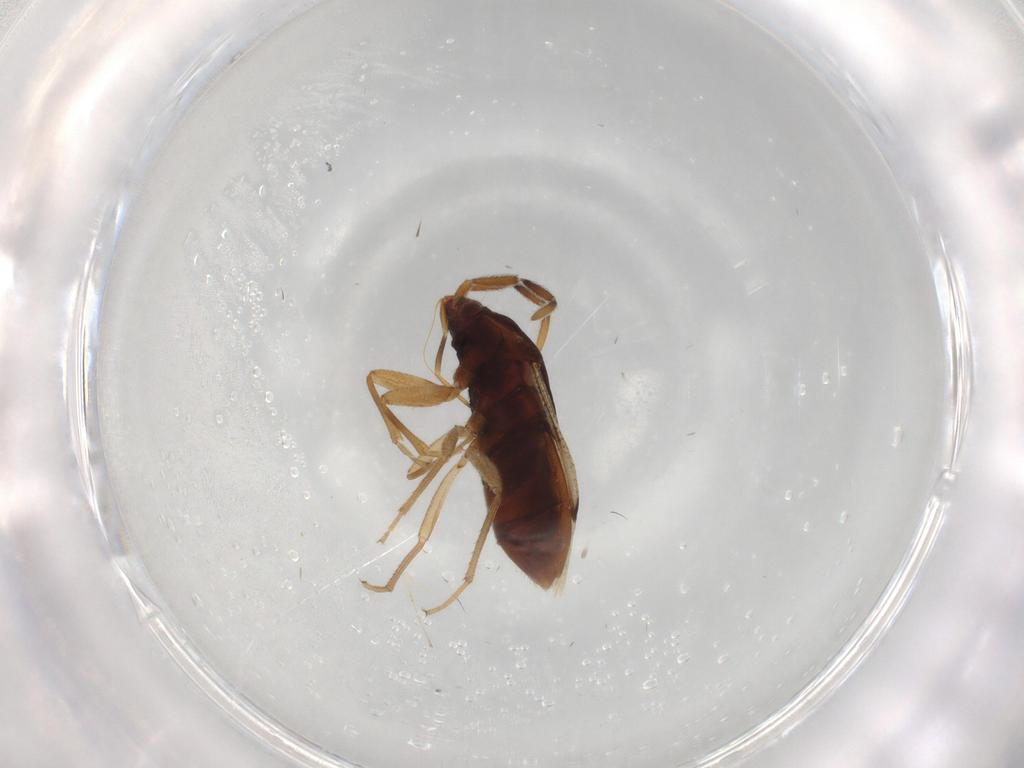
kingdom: Animalia
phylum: Arthropoda
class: Insecta
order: Hemiptera
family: Rhyparochromidae
